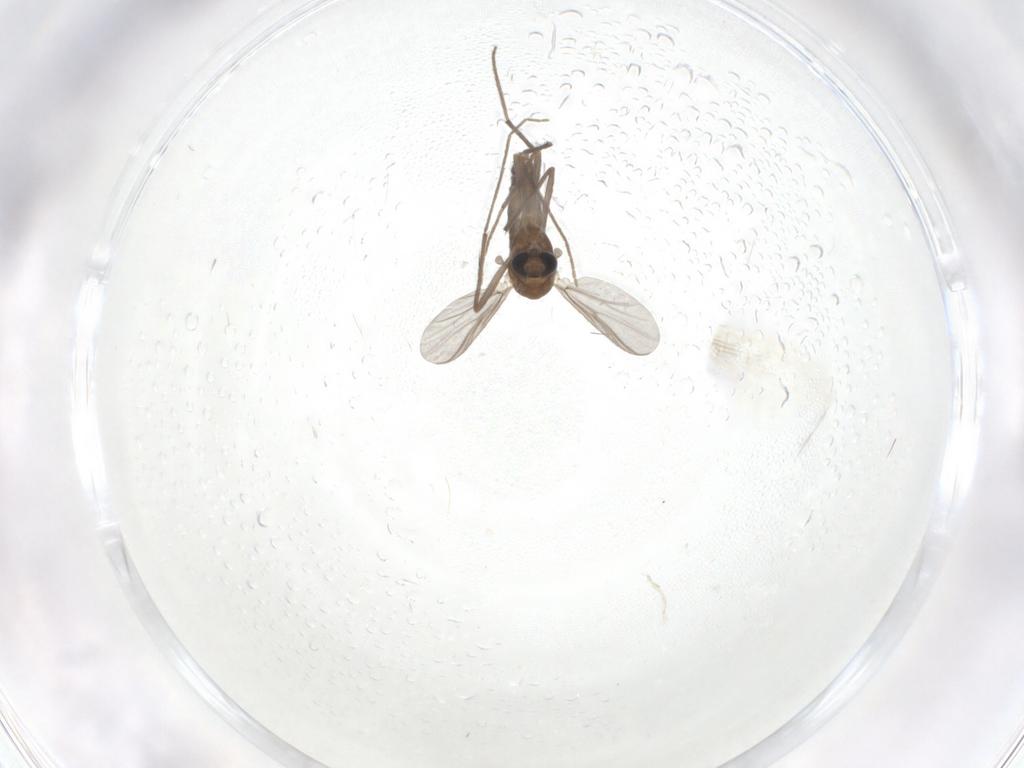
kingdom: Animalia
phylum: Arthropoda
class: Insecta
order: Diptera
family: Chironomidae
